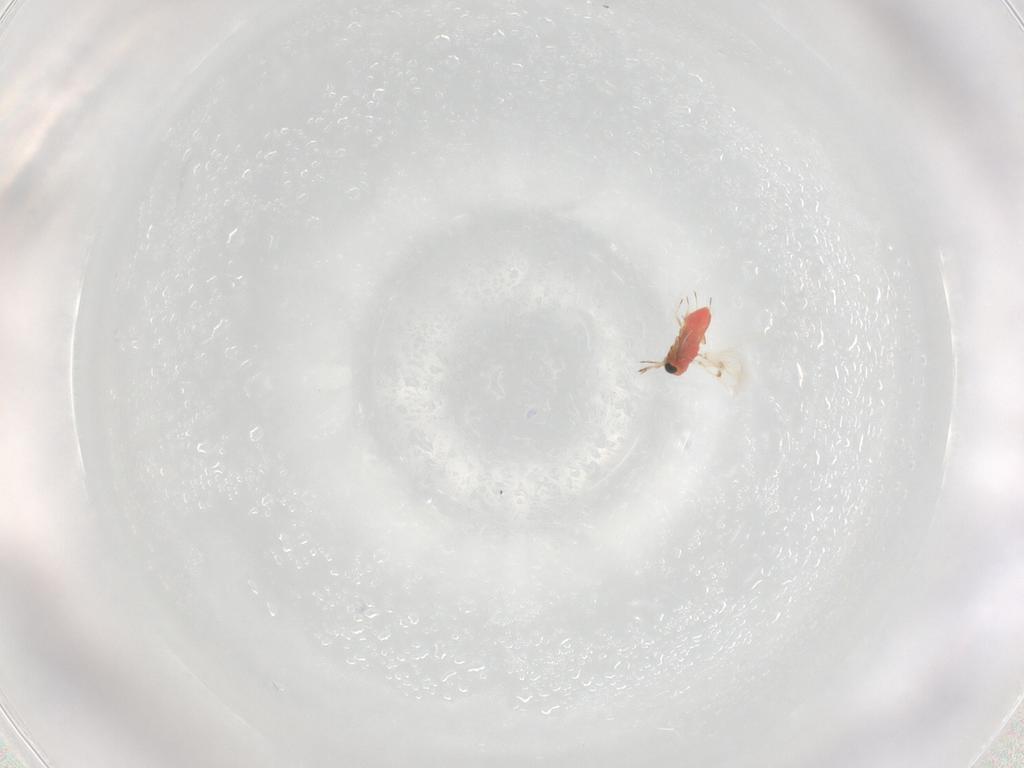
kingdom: Animalia
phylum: Arthropoda
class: Insecta
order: Hymenoptera
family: Trichogrammatidae
